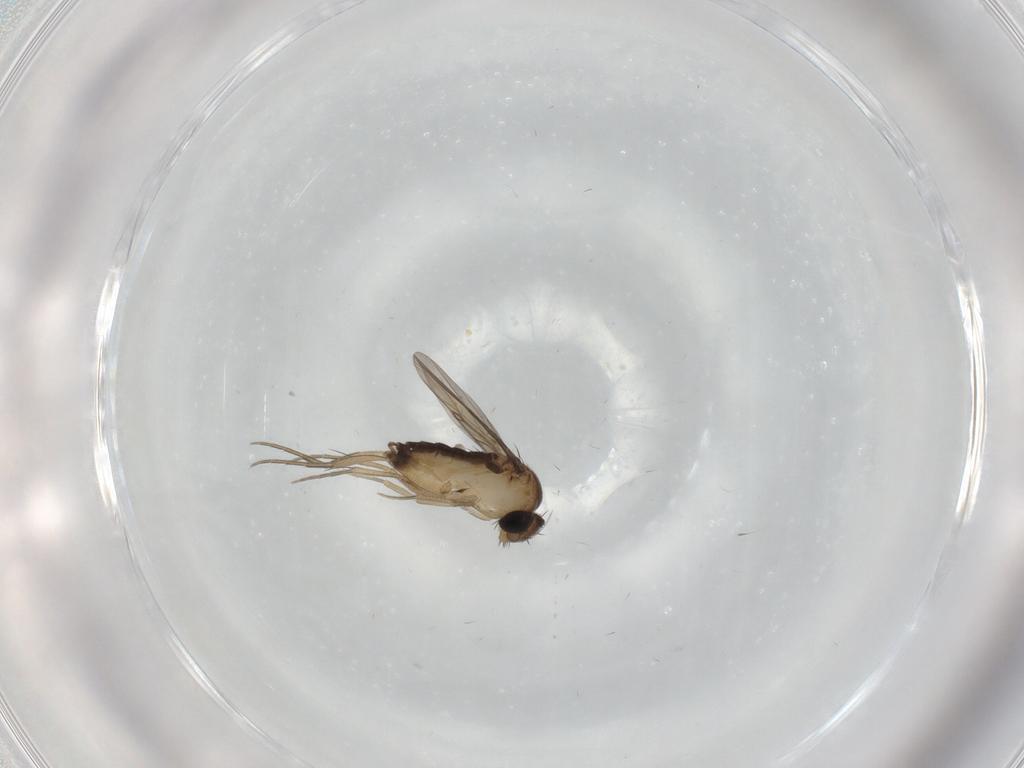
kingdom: Animalia
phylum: Arthropoda
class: Insecta
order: Diptera
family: Phoridae
